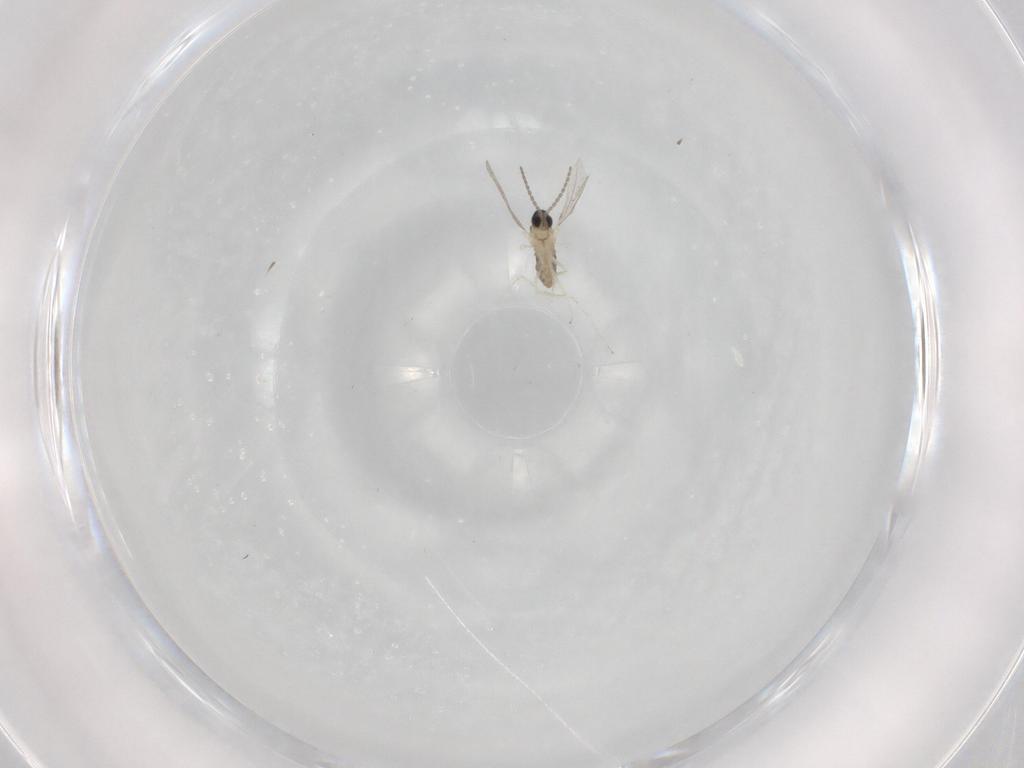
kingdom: Animalia
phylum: Arthropoda
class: Insecta
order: Diptera
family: Cecidomyiidae
